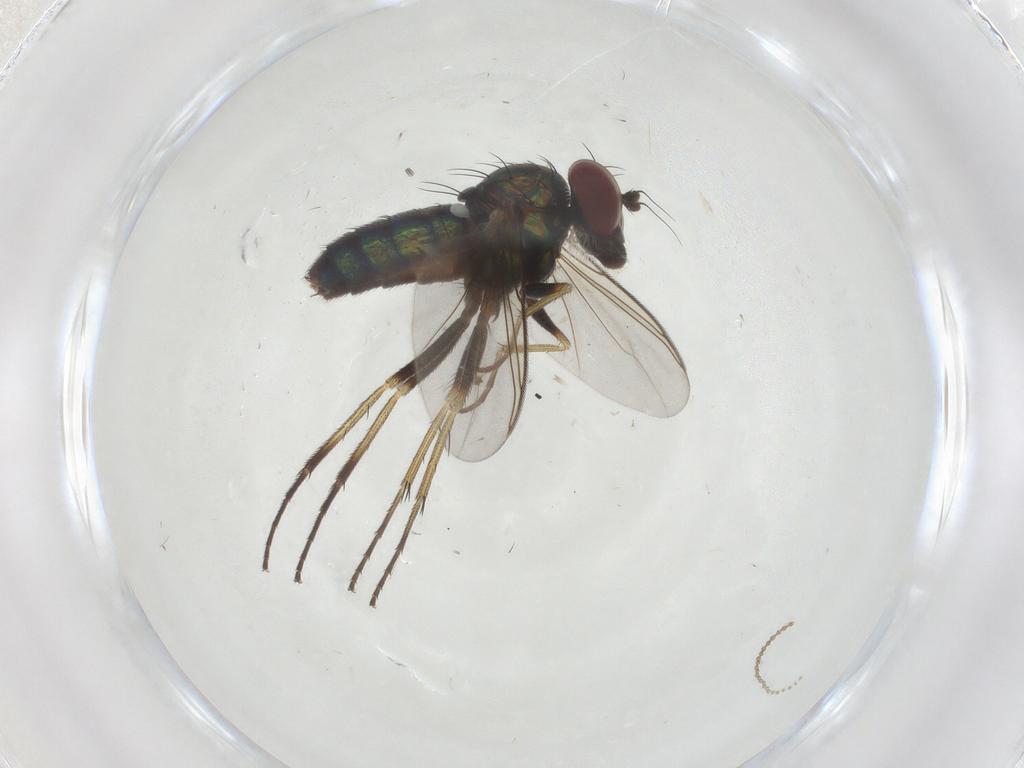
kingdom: Animalia
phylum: Arthropoda
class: Insecta
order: Diptera
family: Dolichopodidae
